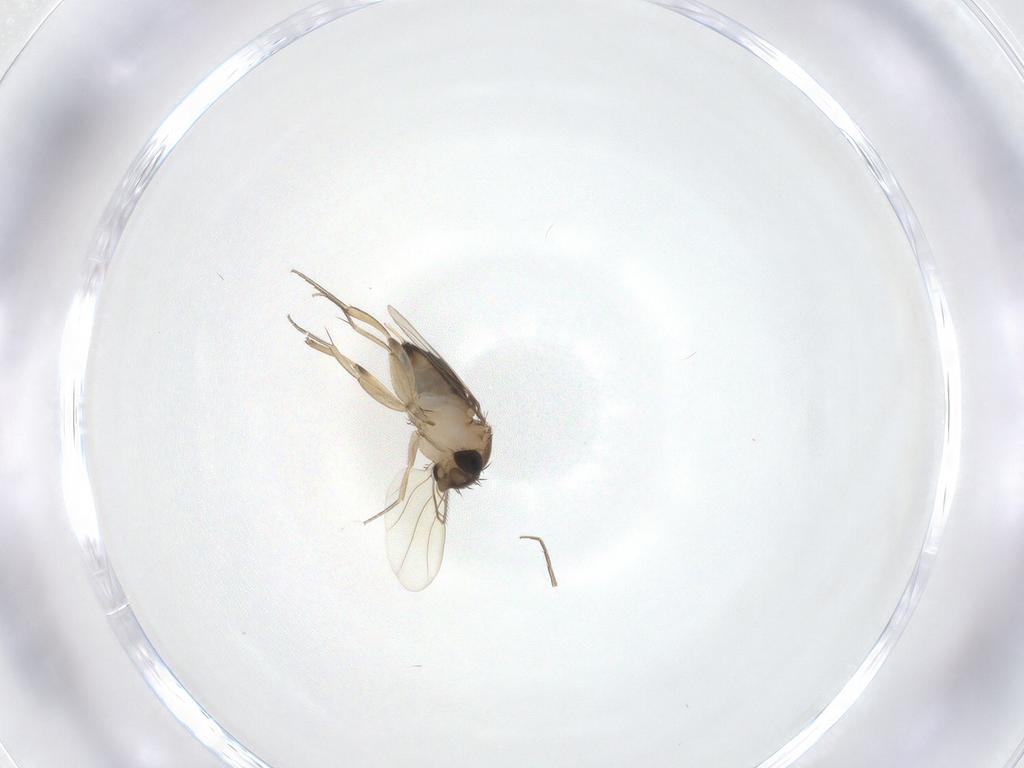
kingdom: Animalia
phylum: Arthropoda
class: Insecta
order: Diptera
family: Phoridae
